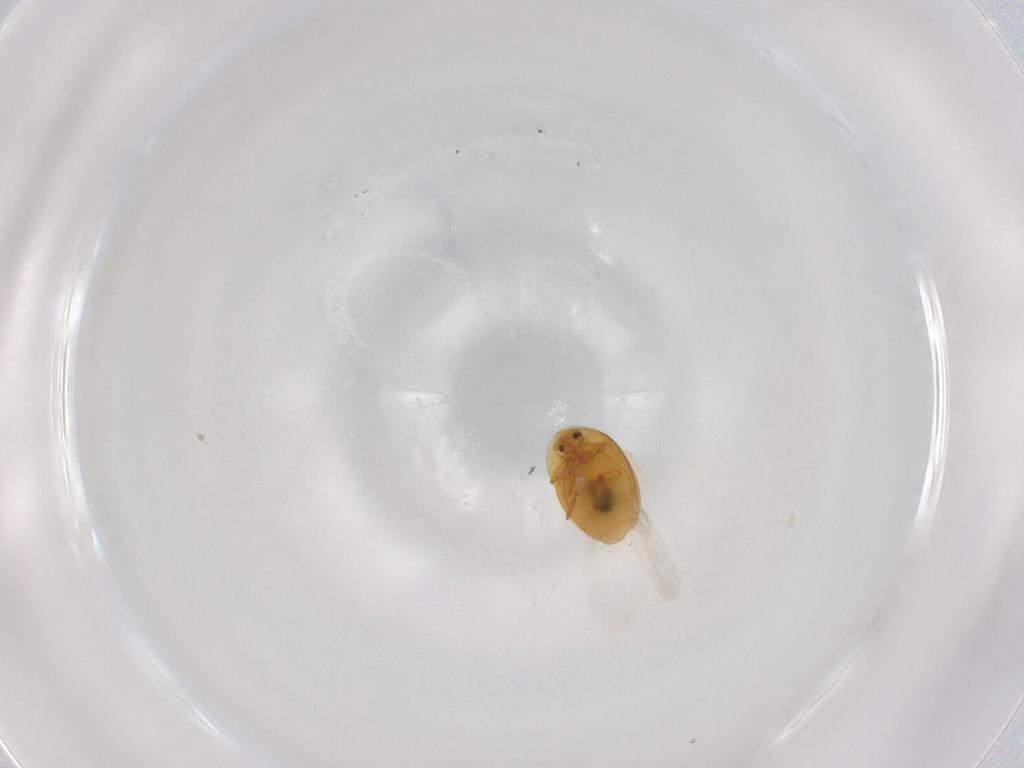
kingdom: Animalia
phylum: Arthropoda
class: Insecta
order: Coleoptera
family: Corylophidae
